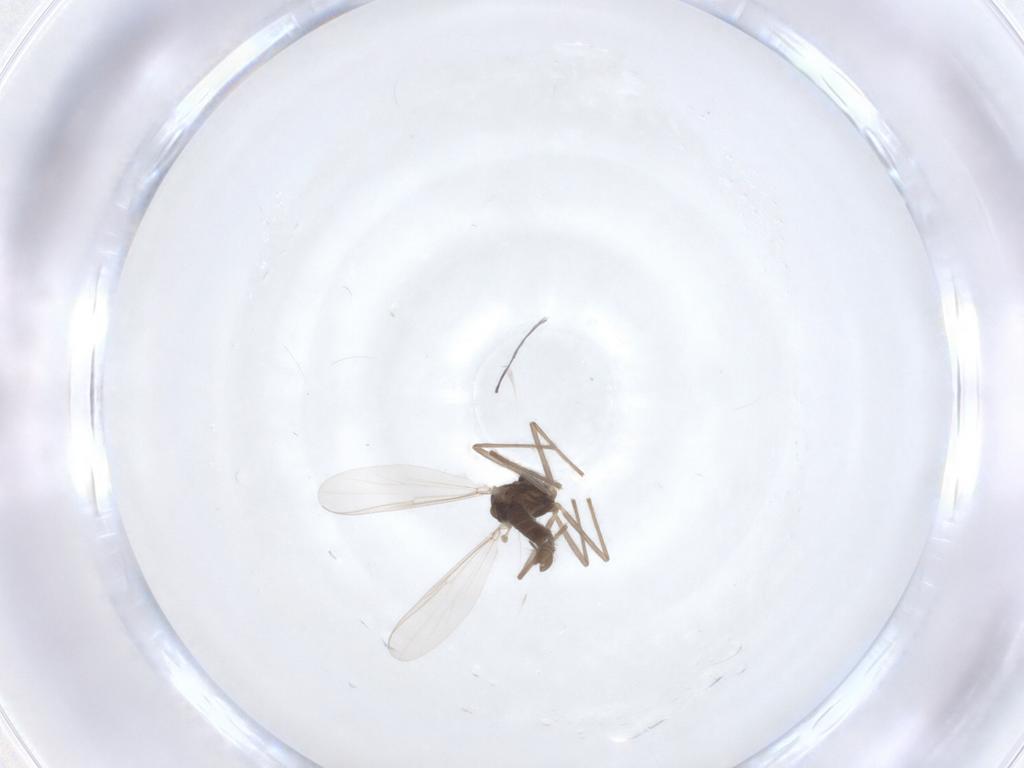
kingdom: Animalia
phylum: Arthropoda
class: Insecta
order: Diptera
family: Chironomidae
